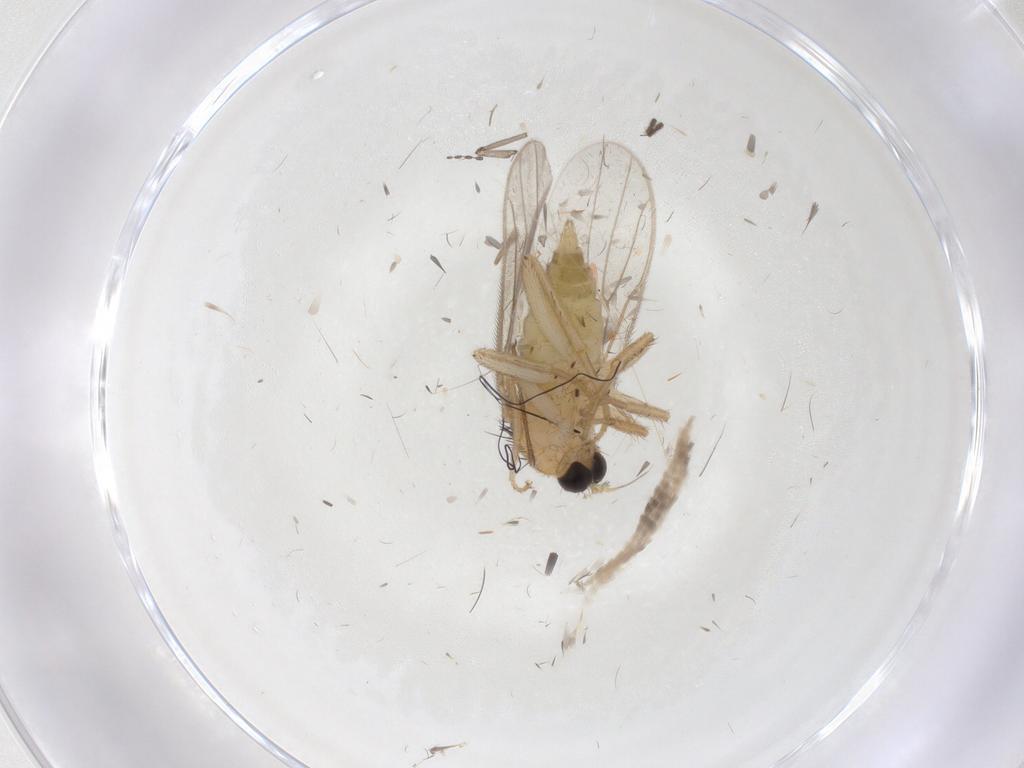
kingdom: Animalia
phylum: Arthropoda
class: Insecta
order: Diptera
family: Hybotidae
